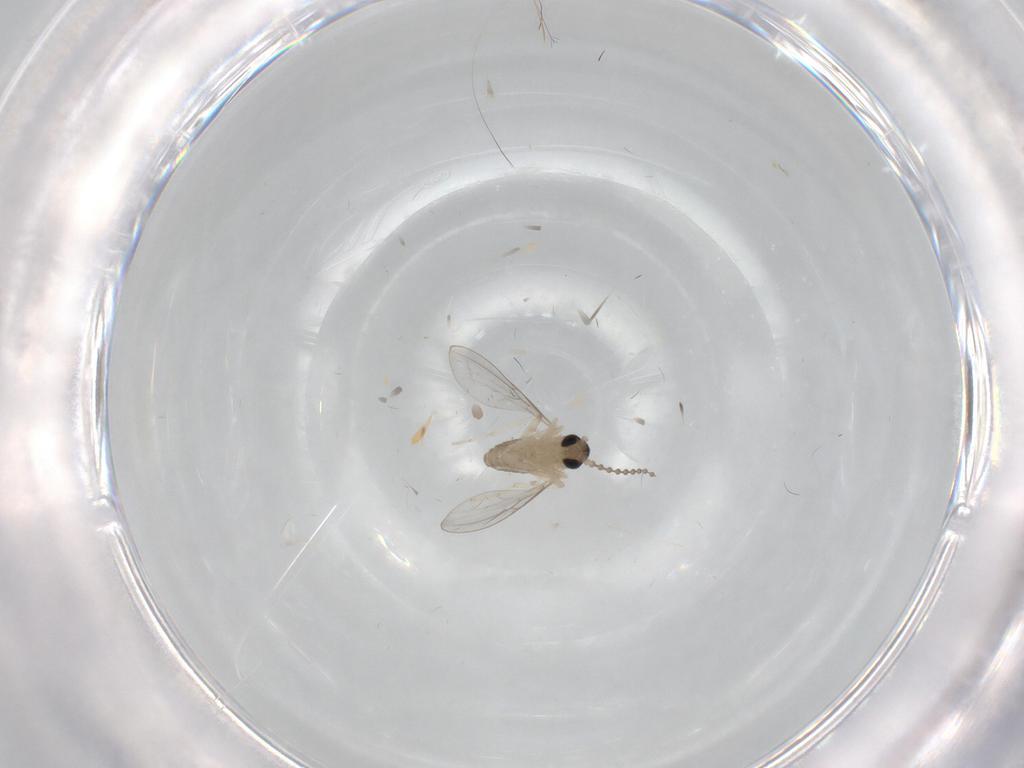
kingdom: Animalia
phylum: Arthropoda
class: Insecta
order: Diptera
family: Cecidomyiidae
